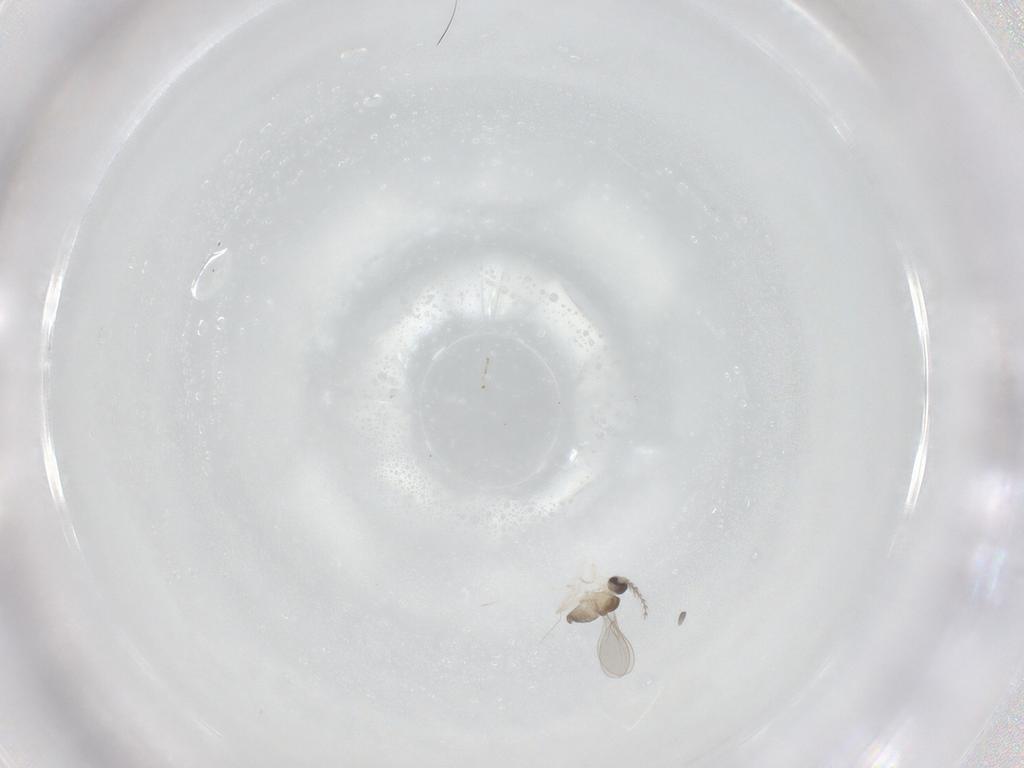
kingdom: Animalia
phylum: Arthropoda
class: Insecta
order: Diptera
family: Cecidomyiidae
